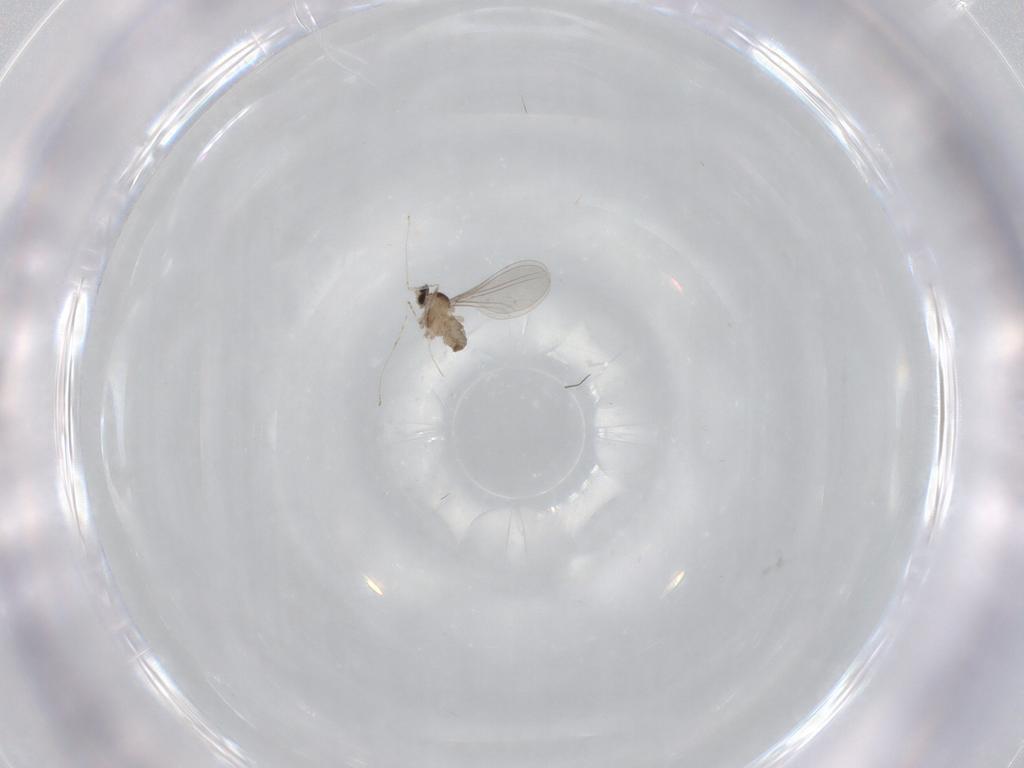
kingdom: Animalia
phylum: Arthropoda
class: Insecta
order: Diptera
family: Cecidomyiidae
